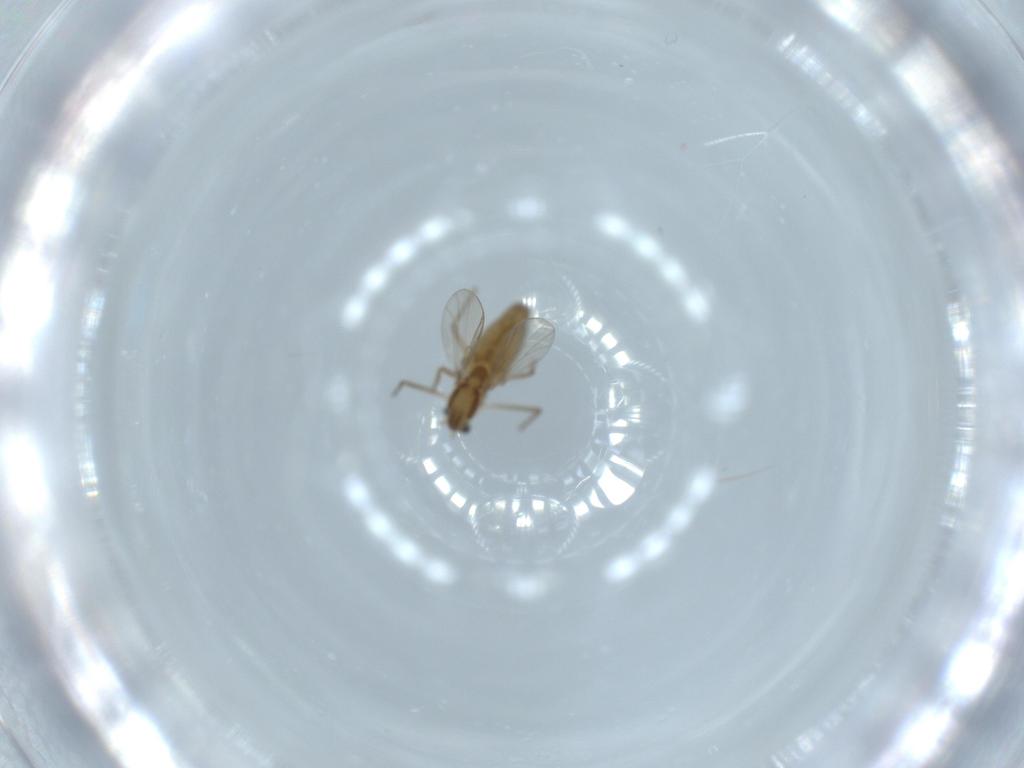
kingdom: Animalia
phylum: Arthropoda
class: Insecta
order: Diptera
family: Chironomidae
